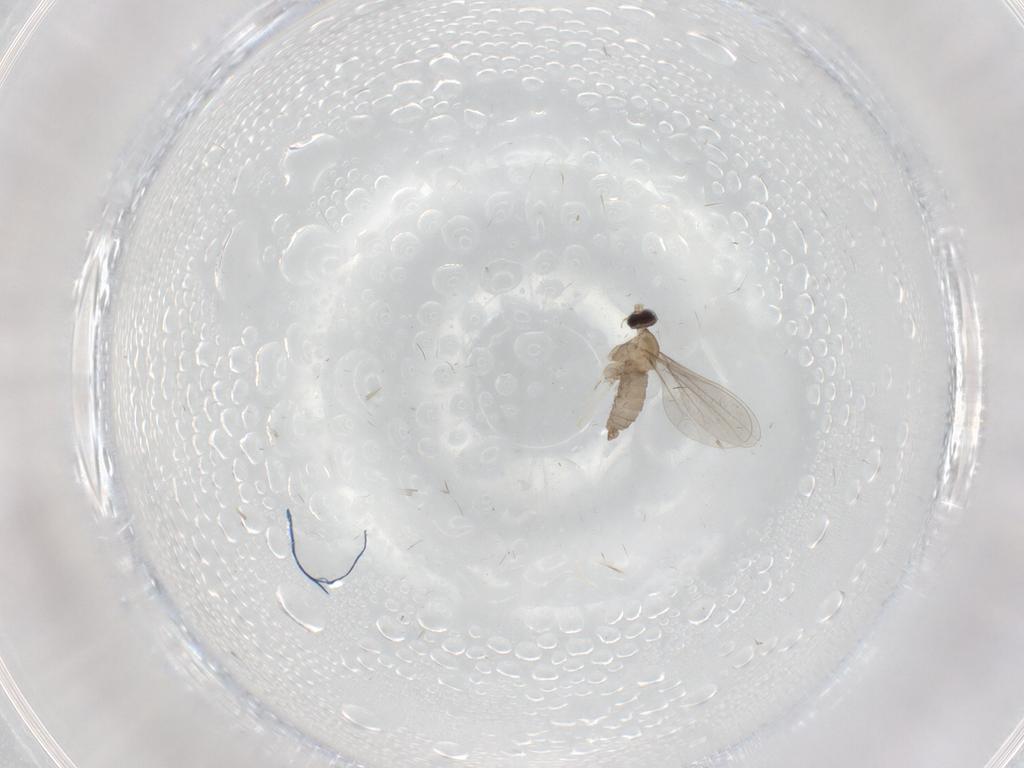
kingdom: Animalia
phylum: Arthropoda
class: Insecta
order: Diptera
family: Cecidomyiidae
